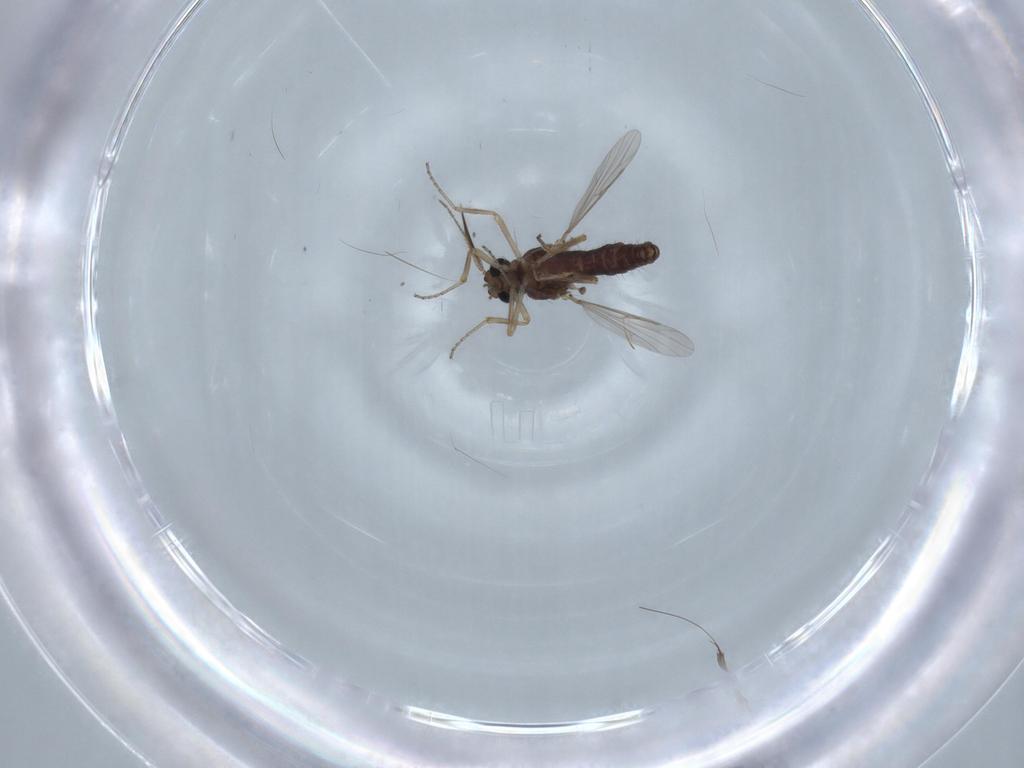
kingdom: Animalia
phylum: Arthropoda
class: Insecta
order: Diptera
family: Ceratopogonidae
